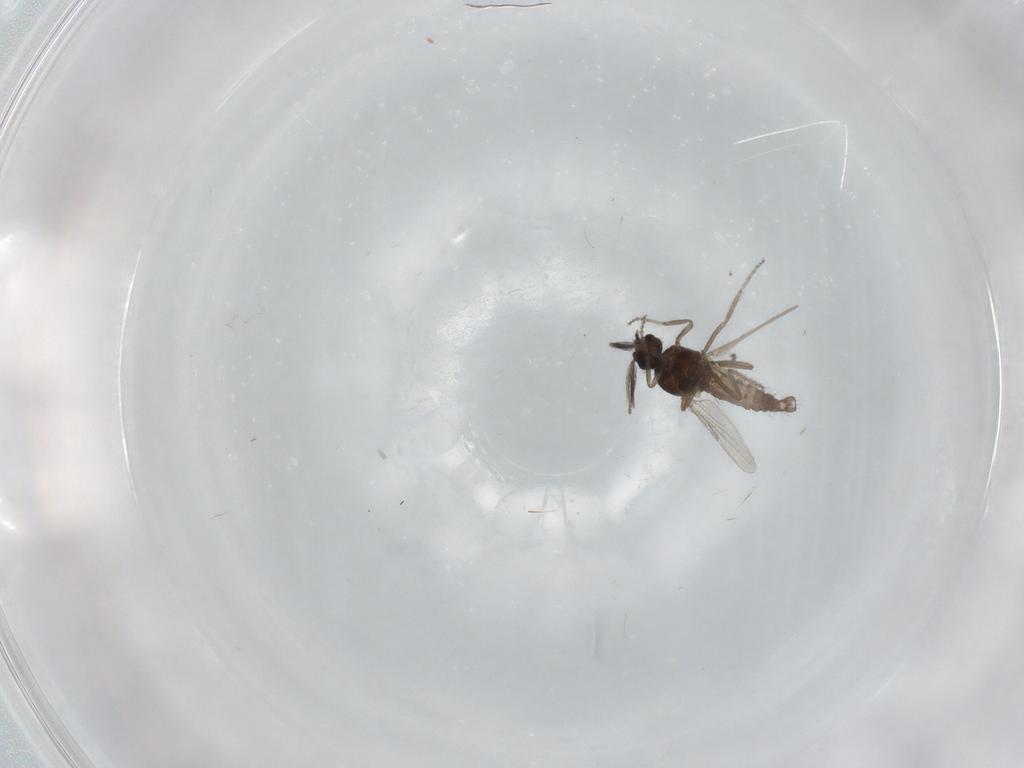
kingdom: Animalia
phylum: Arthropoda
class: Insecta
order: Diptera
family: Ceratopogonidae
